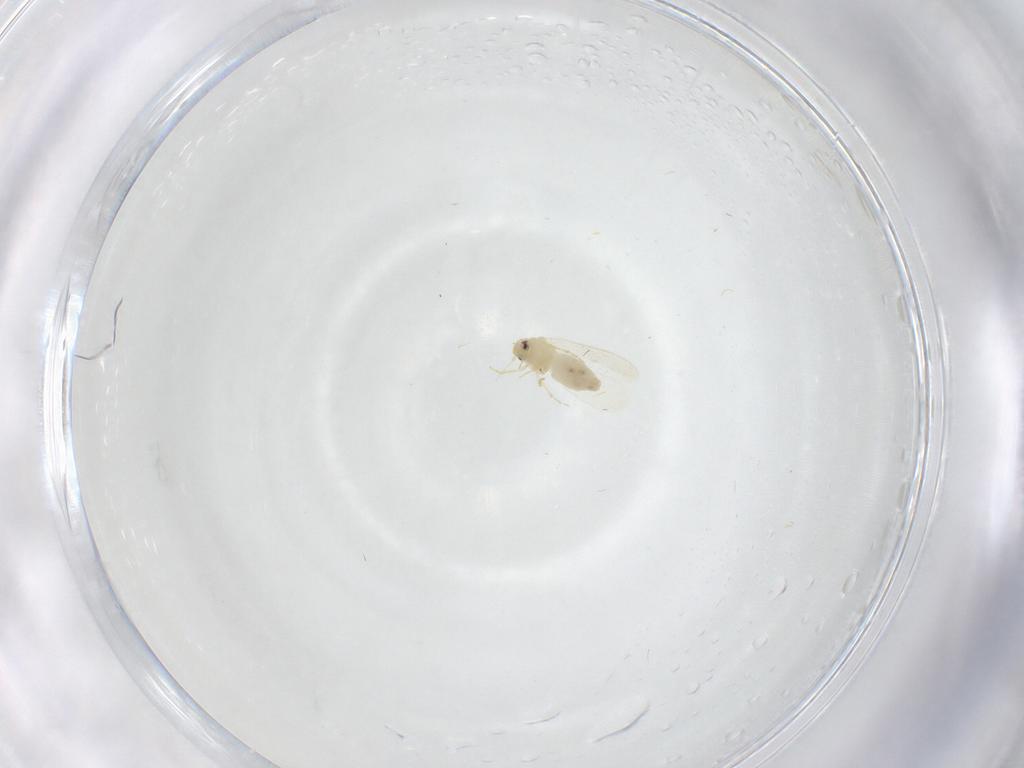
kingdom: Animalia
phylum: Arthropoda
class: Insecta
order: Hemiptera
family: Aleyrodidae
